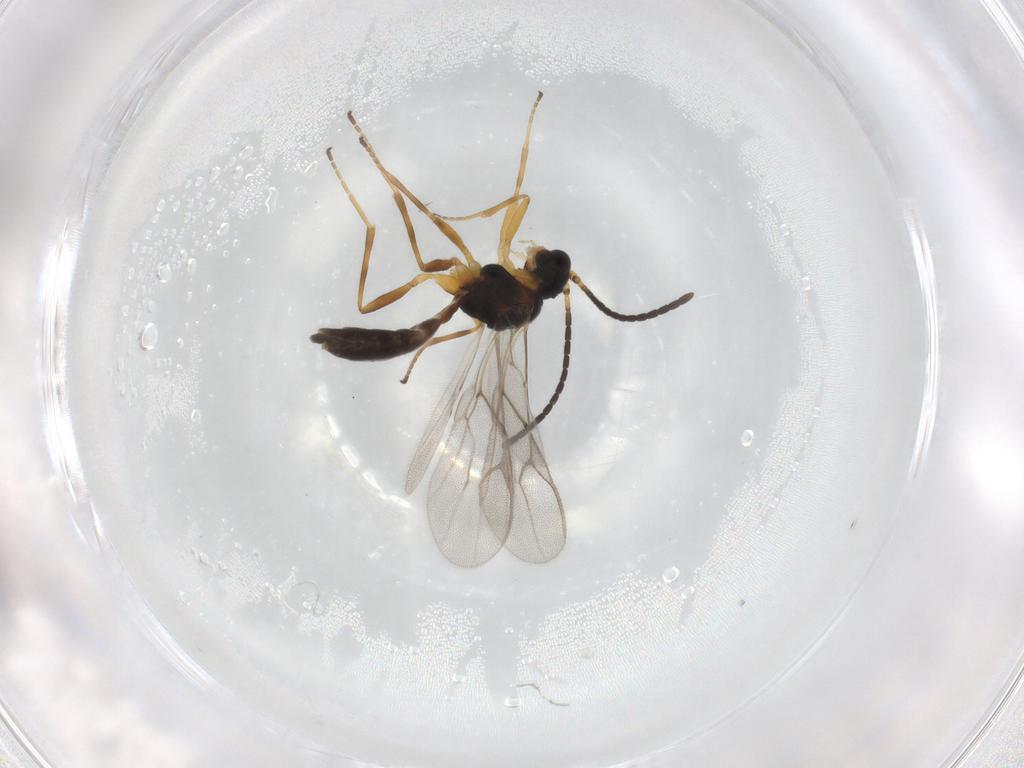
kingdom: Animalia
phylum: Arthropoda
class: Insecta
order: Hymenoptera
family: Braconidae
